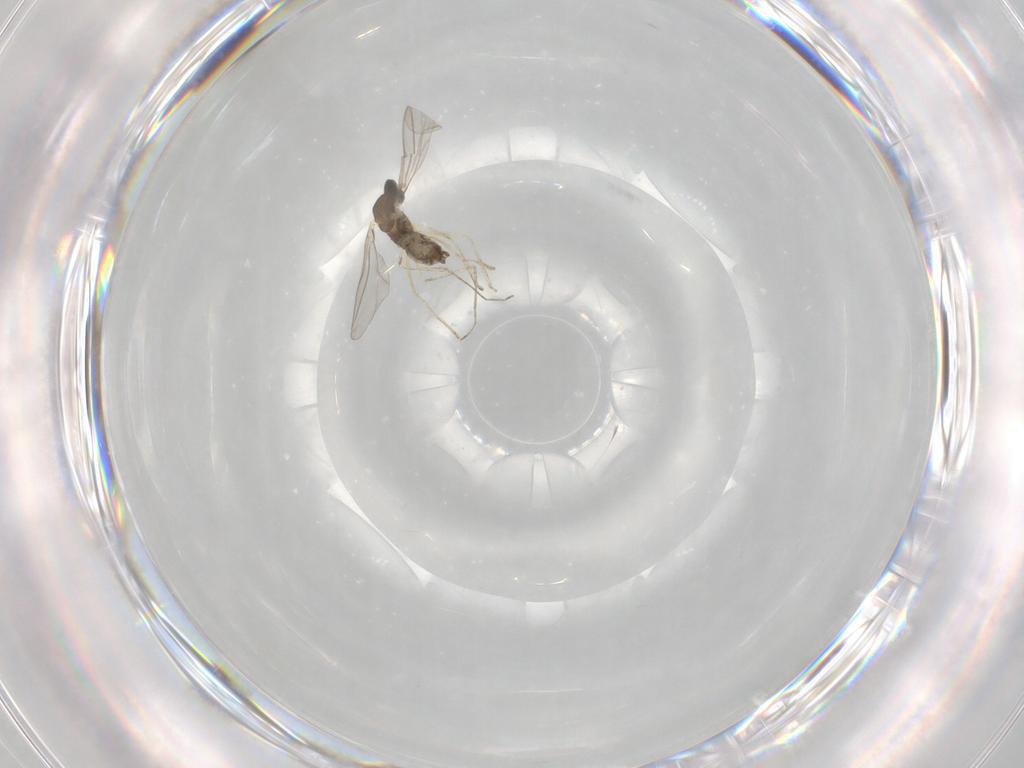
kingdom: Animalia
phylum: Arthropoda
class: Insecta
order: Diptera
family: Cecidomyiidae
